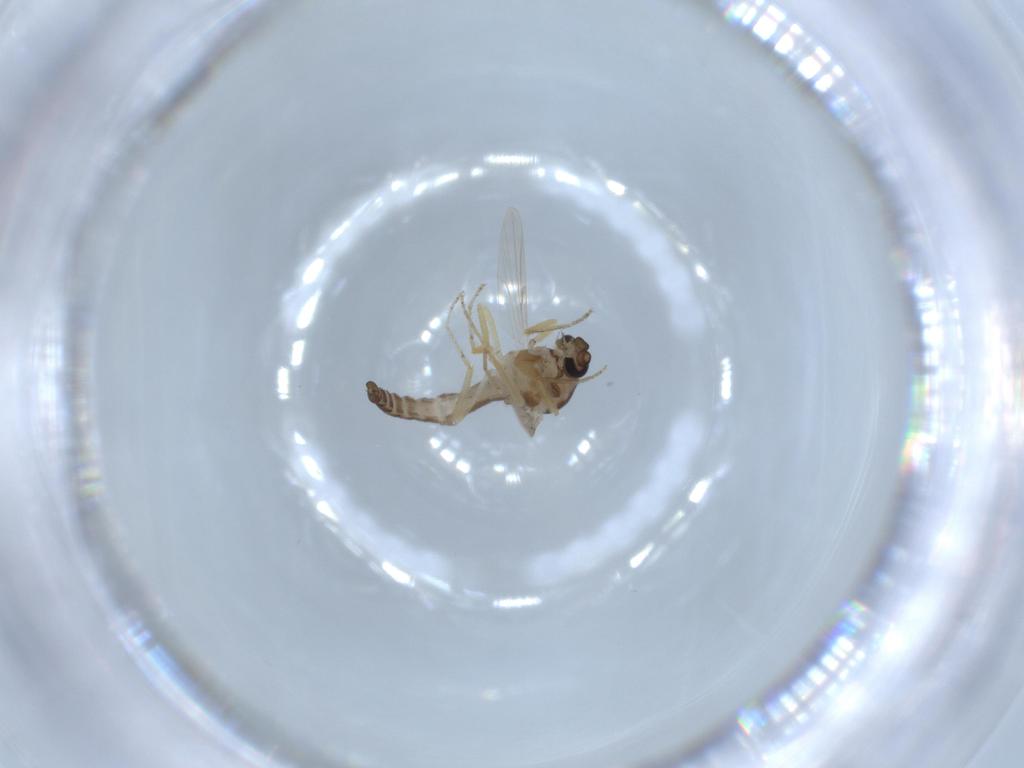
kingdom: Animalia
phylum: Arthropoda
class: Insecta
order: Diptera
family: Ceratopogonidae
